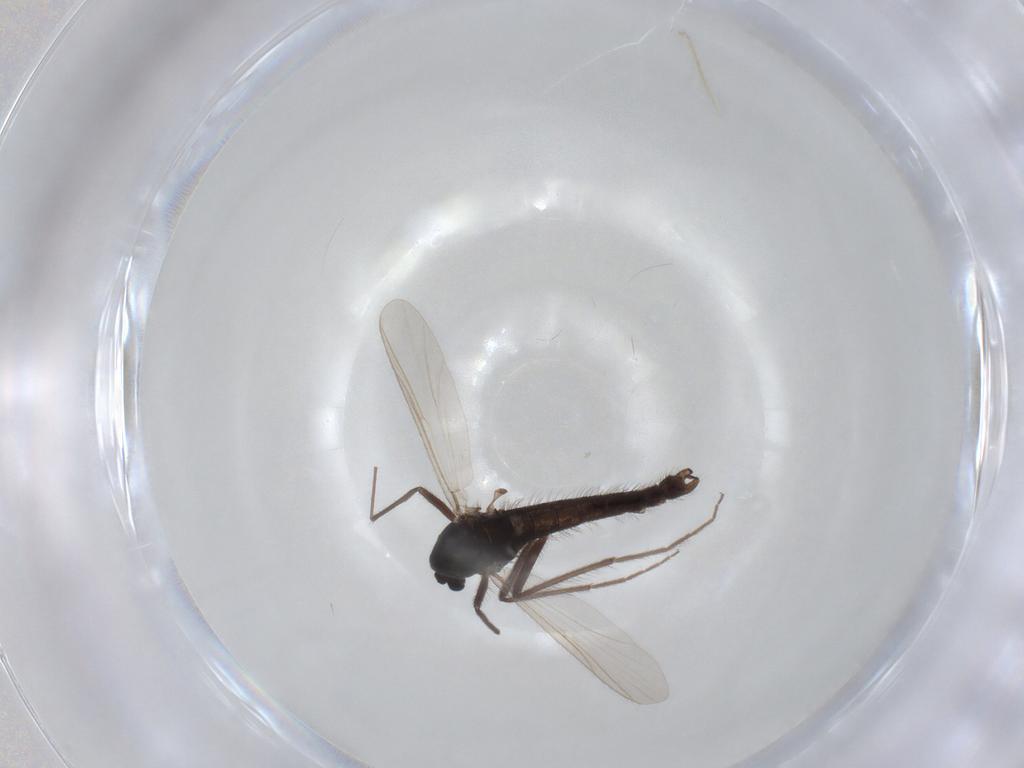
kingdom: Animalia
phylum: Arthropoda
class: Insecta
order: Diptera
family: Chironomidae
